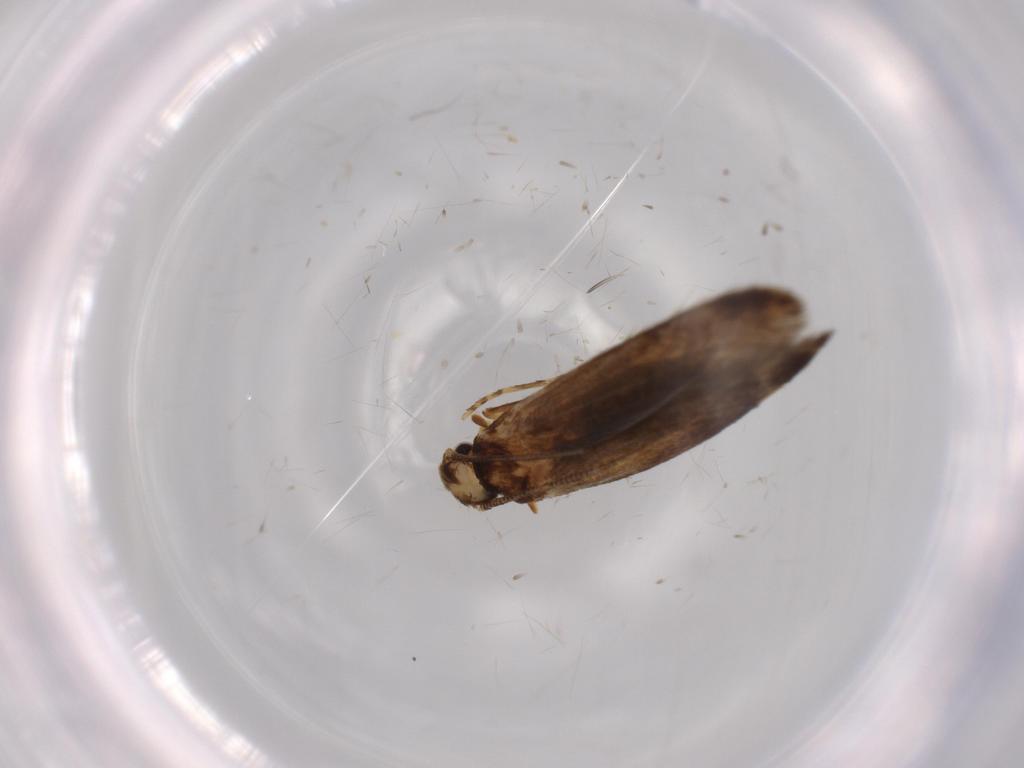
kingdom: Animalia
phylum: Arthropoda
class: Insecta
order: Lepidoptera
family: Tineidae
